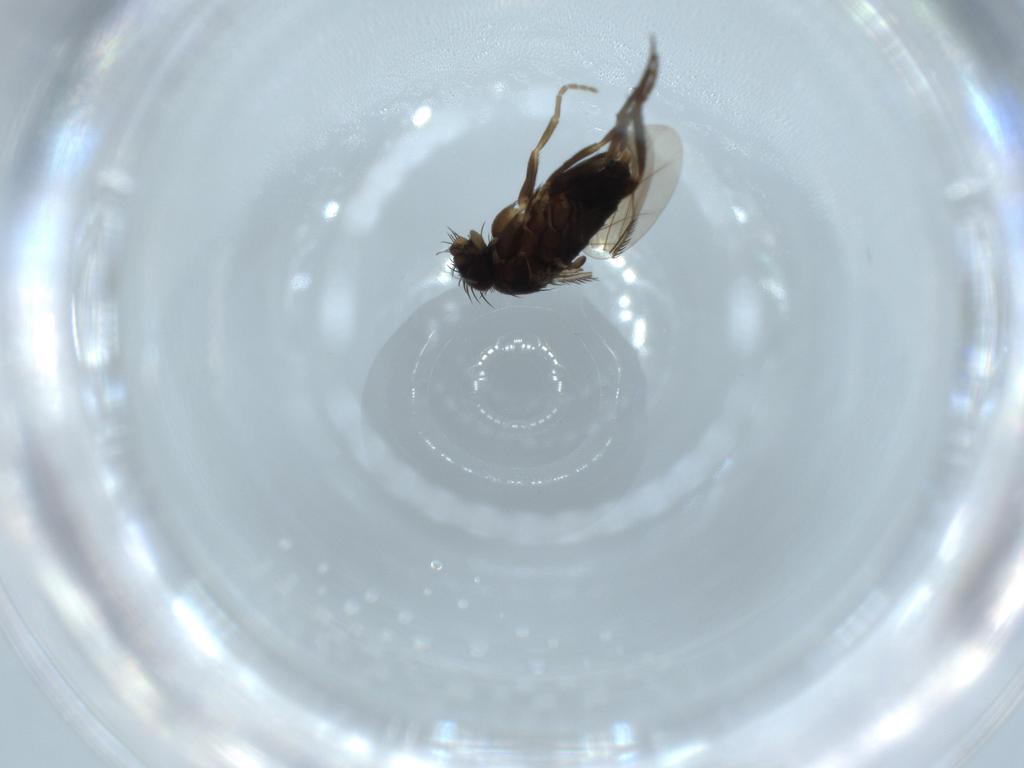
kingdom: Animalia
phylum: Arthropoda
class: Insecta
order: Diptera
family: Phoridae
